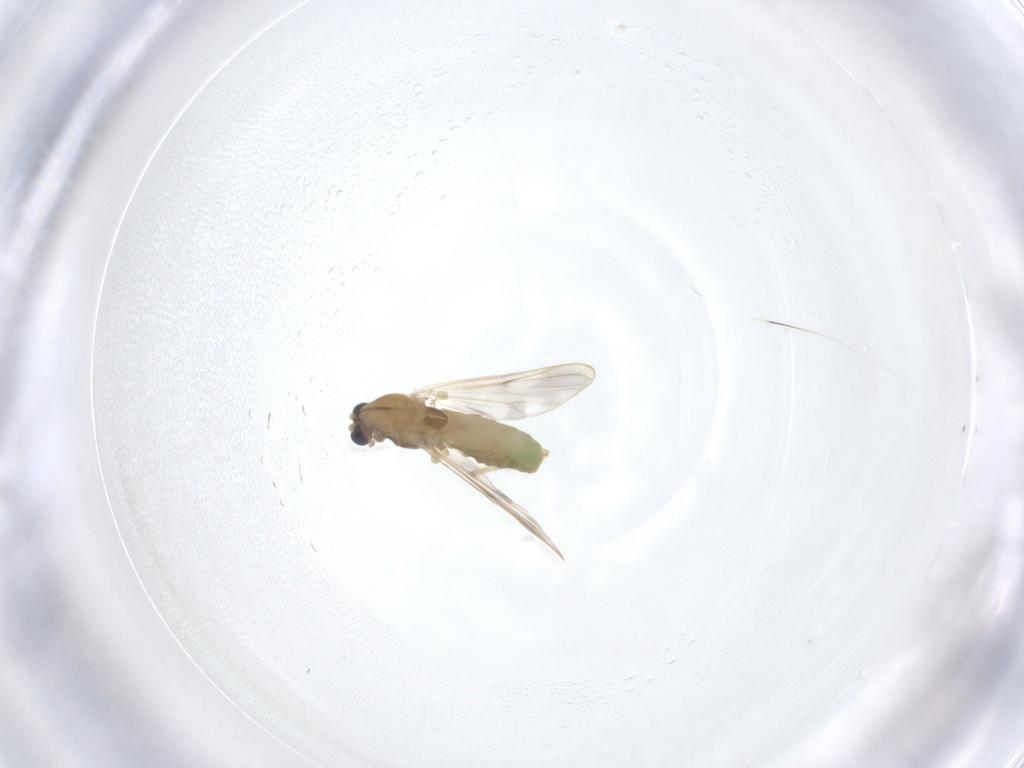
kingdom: Animalia
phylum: Arthropoda
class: Insecta
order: Diptera
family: Chironomidae
